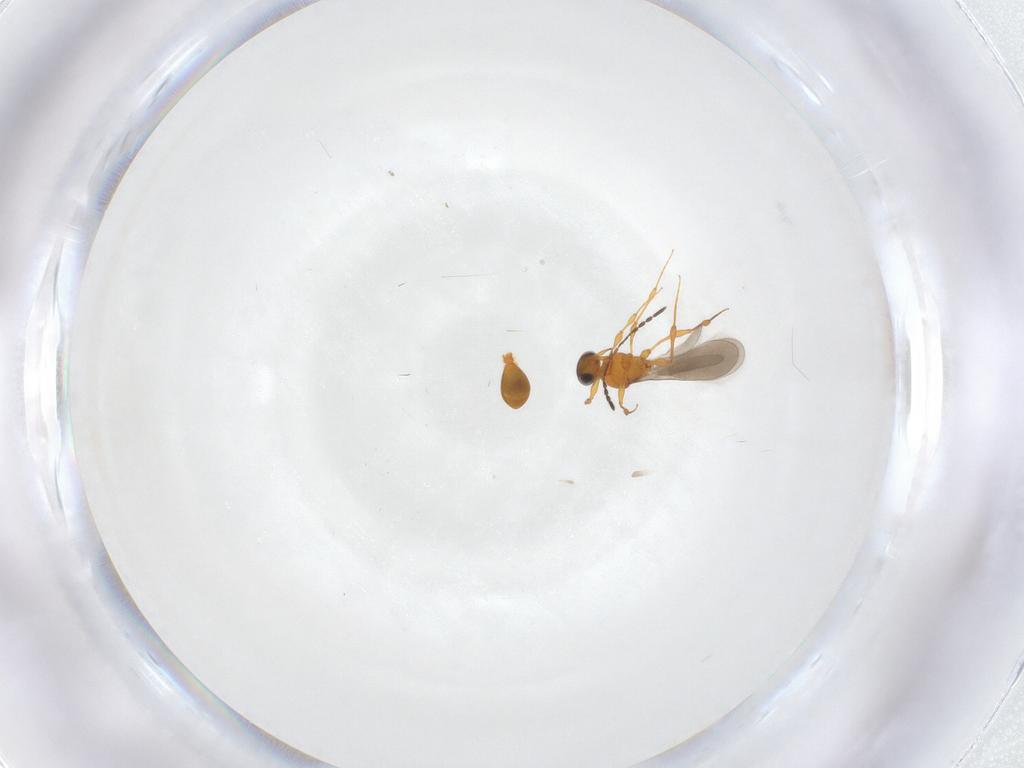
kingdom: Animalia
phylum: Arthropoda
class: Insecta
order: Hymenoptera
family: Platygastridae
